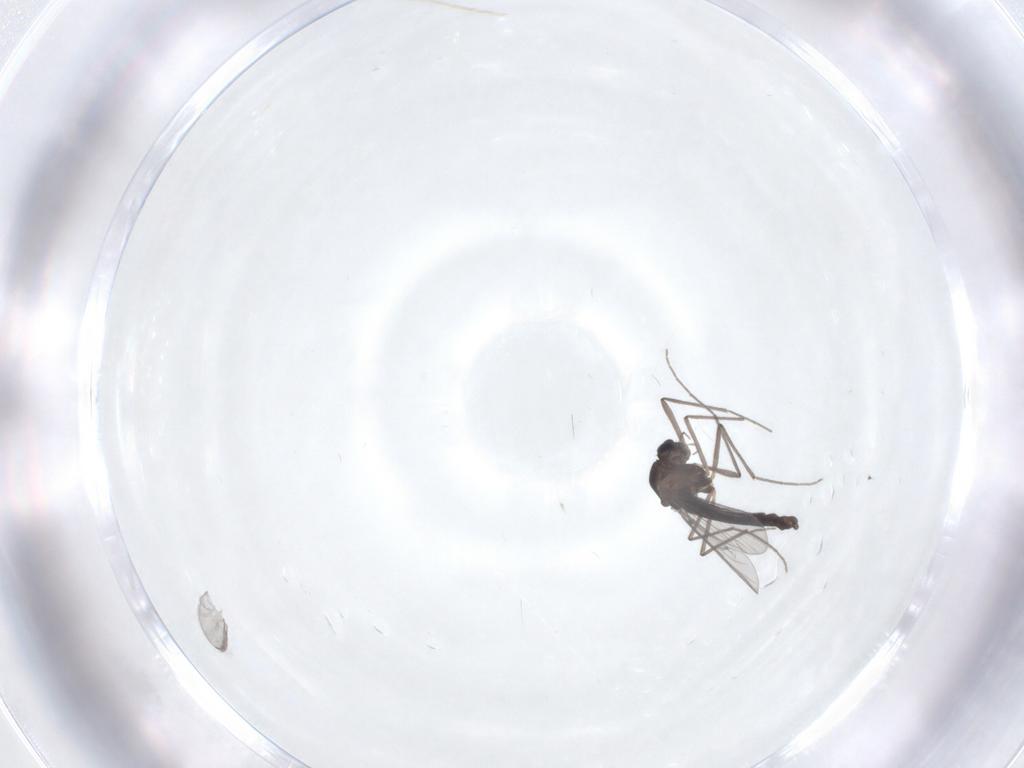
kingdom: Animalia
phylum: Arthropoda
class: Insecta
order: Diptera
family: Chironomidae
